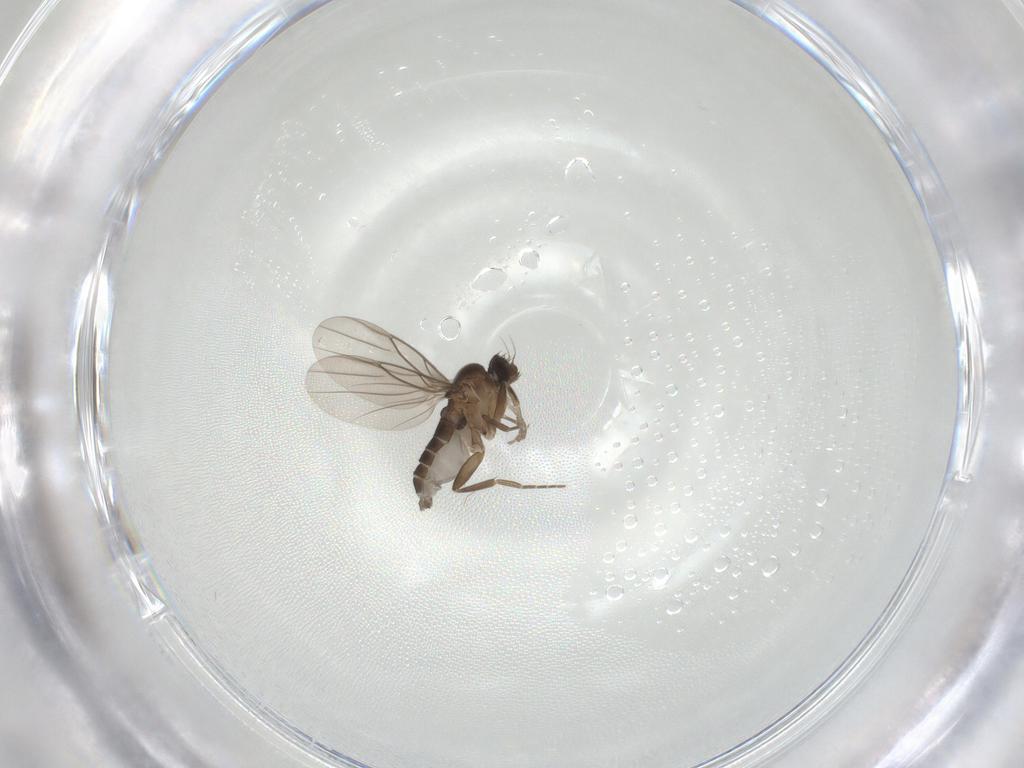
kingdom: Animalia
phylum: Arthropoda
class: Insecta
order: Diptera
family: Phoridae
